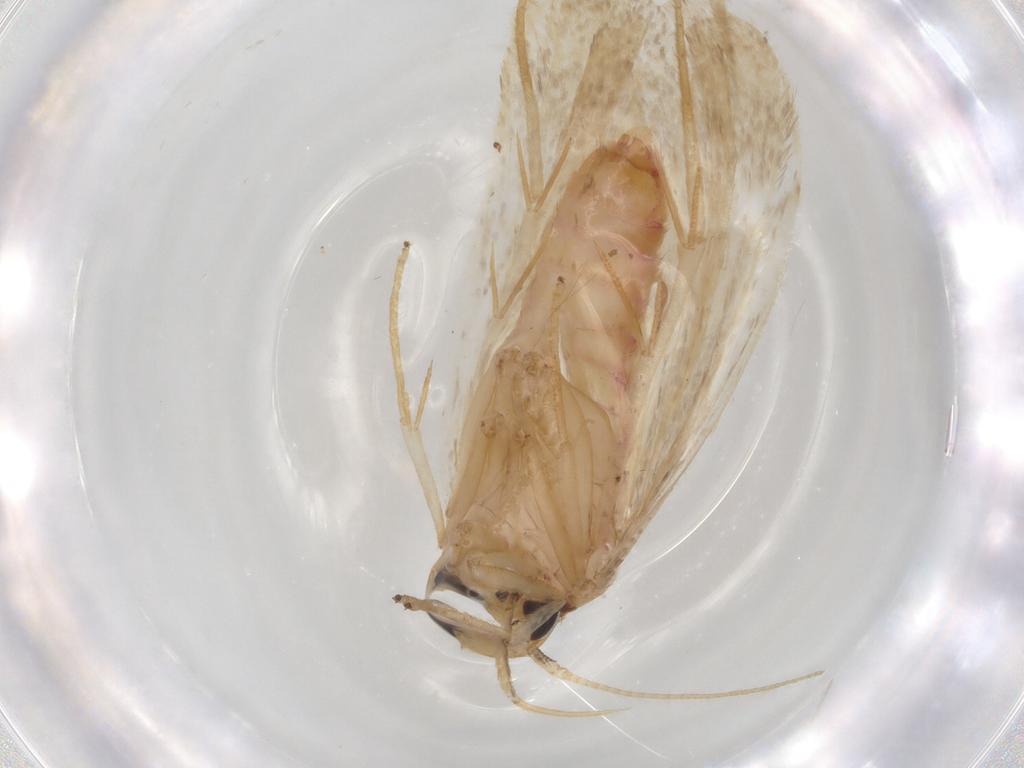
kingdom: Animalia
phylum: Arthropoda
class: Insecta
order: Lepidoptera
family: Lecithoceridae
